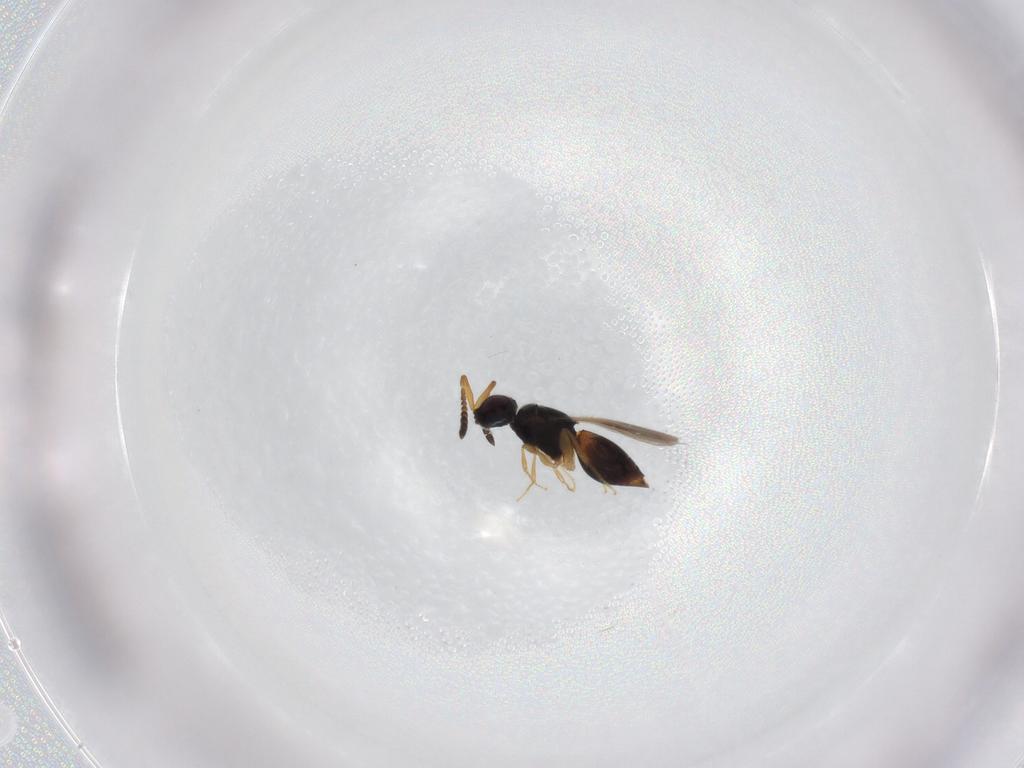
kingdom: Animalia
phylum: Arthropoda
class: Insecta
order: Hymenoptera
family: Ceraphronidae
